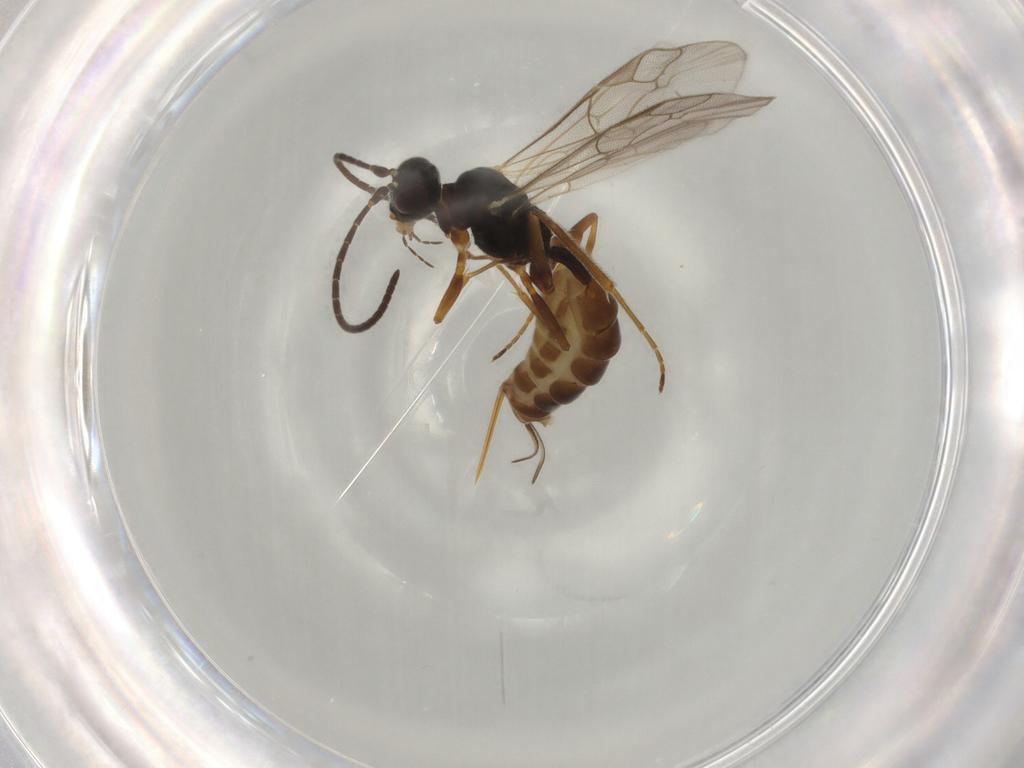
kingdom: Animalia
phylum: Arthropoda
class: Insecta
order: Hymenoptera
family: Ichneumonidae
